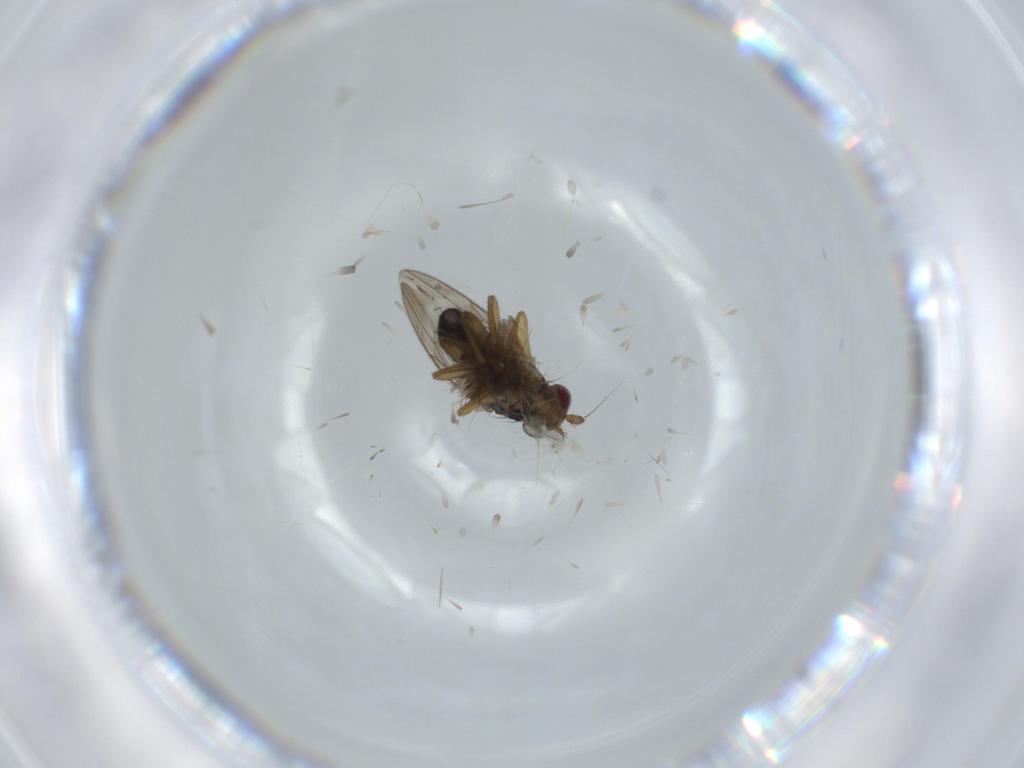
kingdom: Animalia
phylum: Arthropoda
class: Insecta
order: Diptera
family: Sphaeroceridae
